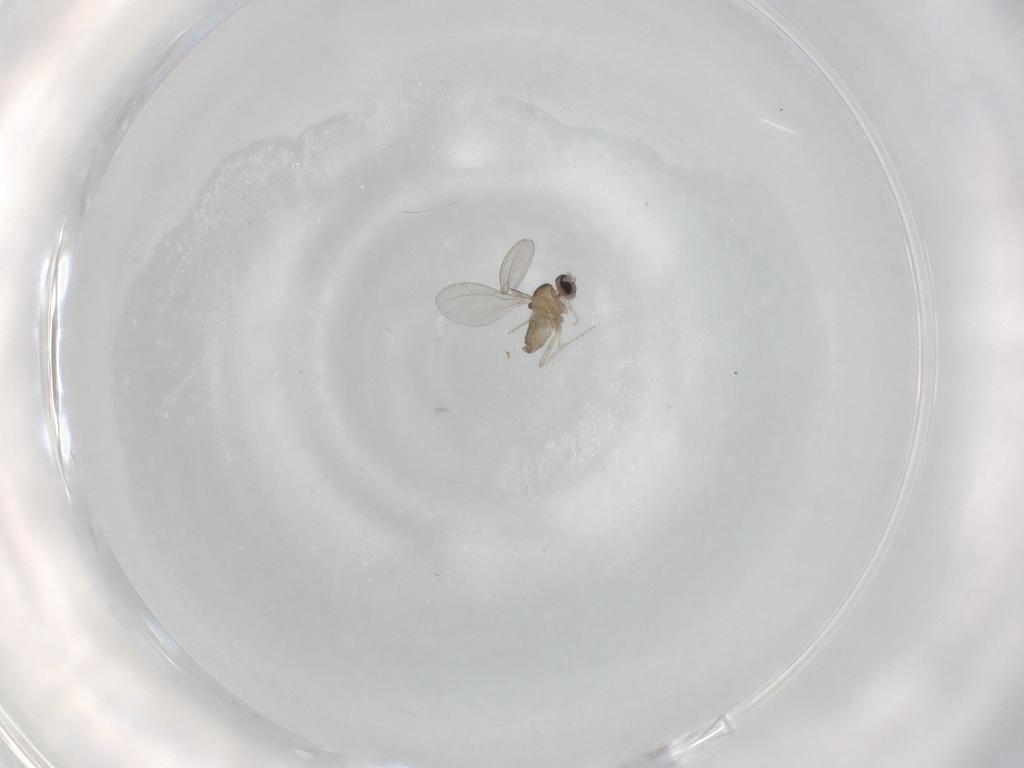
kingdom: Animalia
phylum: Arthropoda
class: Insecta
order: Diptera
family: Cecidomyiidae
